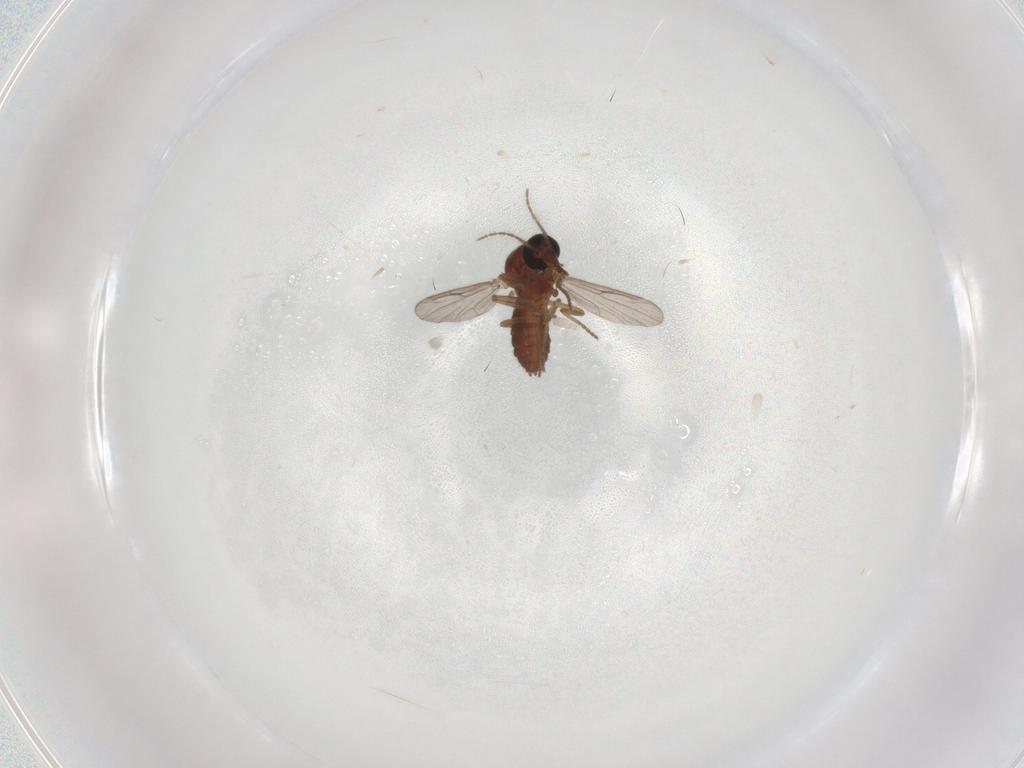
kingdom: Animalia
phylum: Arthropoda
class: Insecta
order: Diptera
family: Ceratopogonidae
